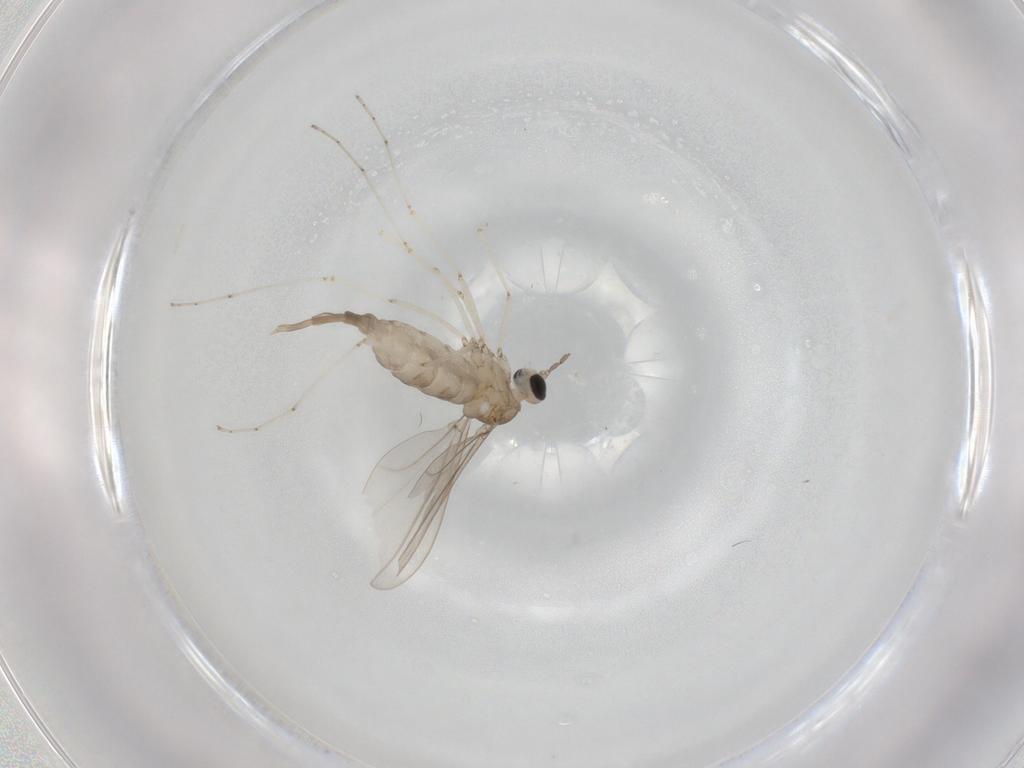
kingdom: Animalia
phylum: Arthropoda
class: Insecta
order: Diptera
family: Cecidomyiidae
